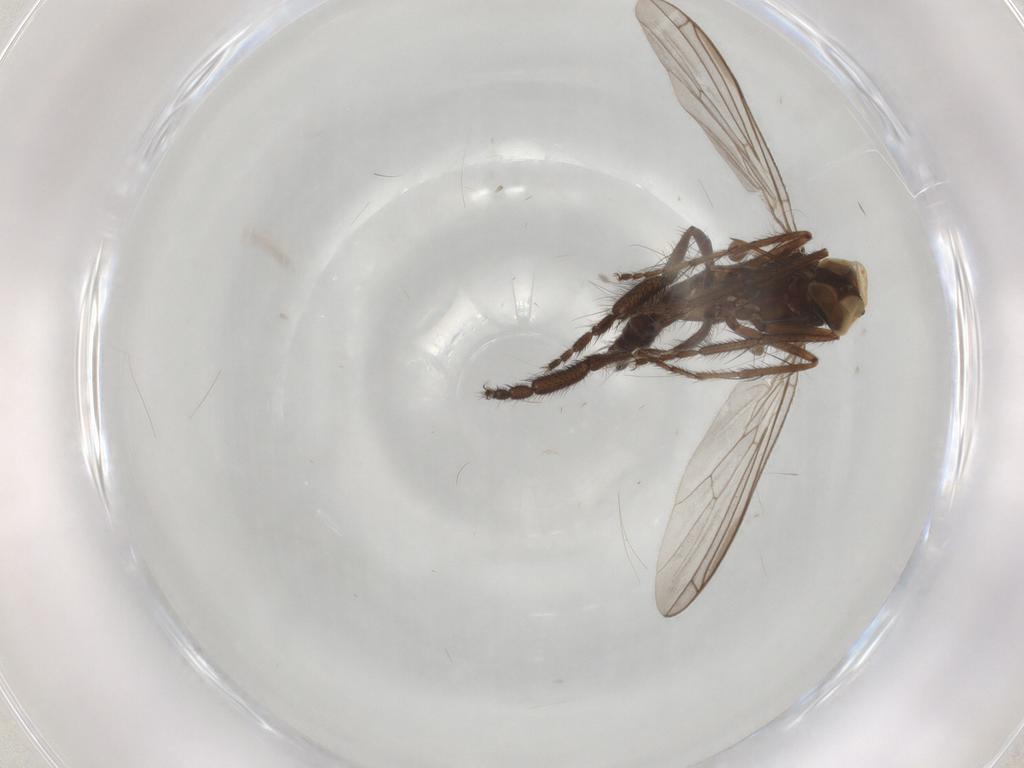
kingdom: Animalia
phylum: Arthropoda
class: Insecta
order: Diptera
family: Empididae
